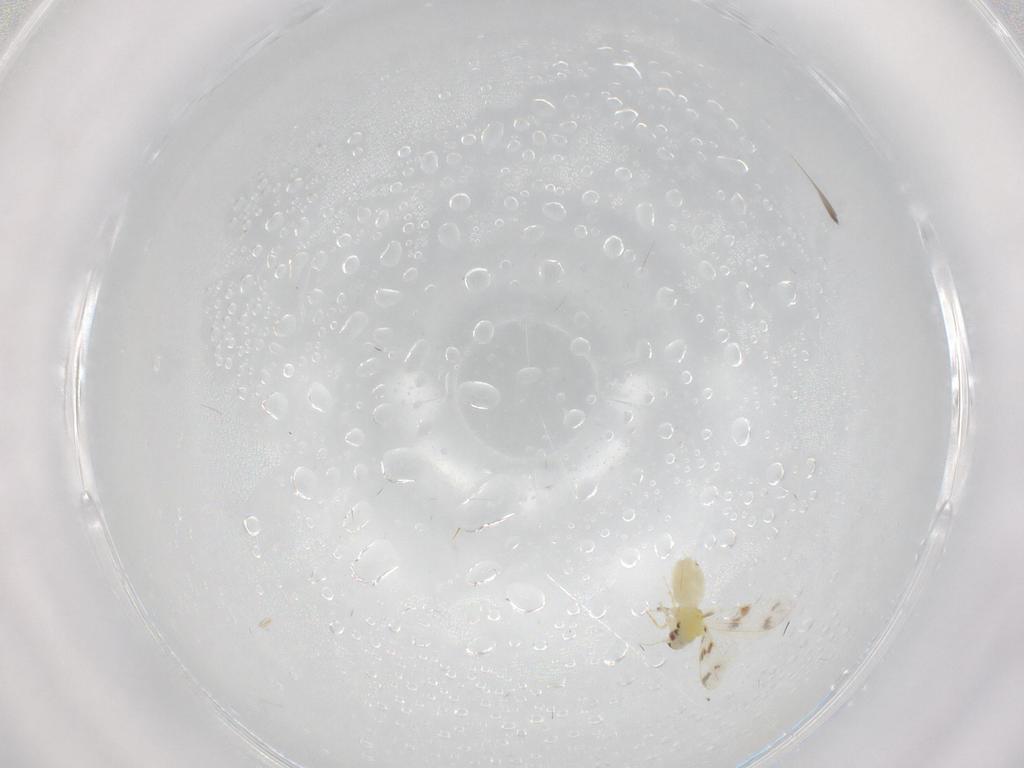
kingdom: Animalia
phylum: Arthropoda
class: Insecta
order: Hemiptera
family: Aleyrodidae
